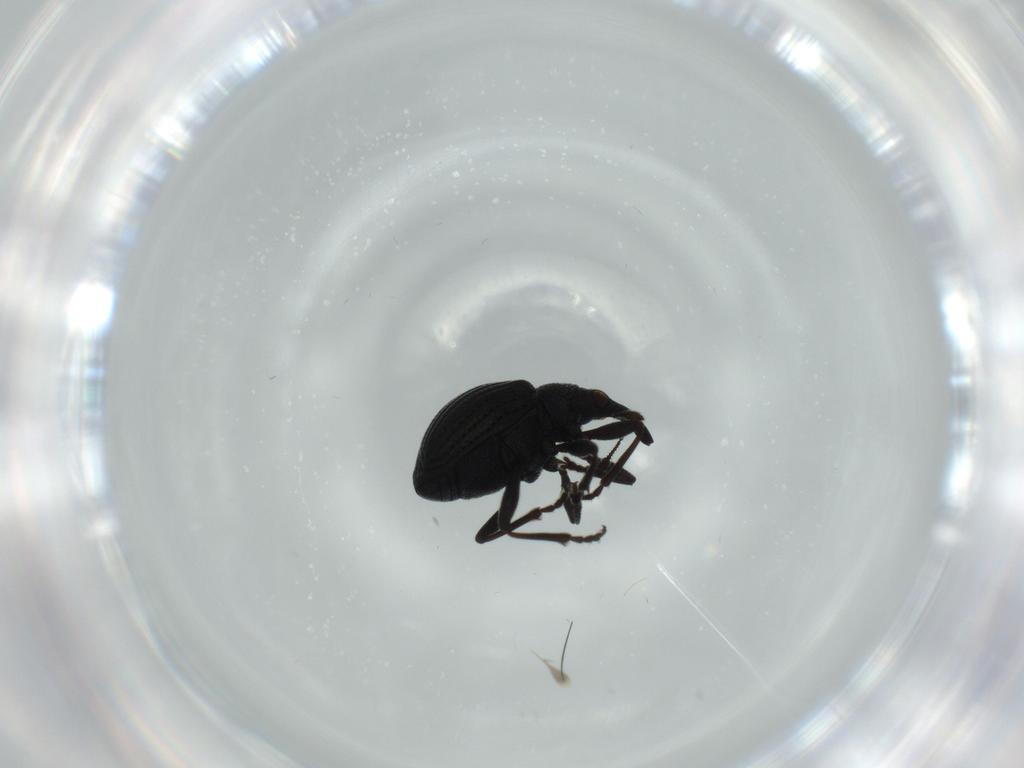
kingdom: Animalia
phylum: Arthropoda
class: Insecta
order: Coleoptera
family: Brentidae
